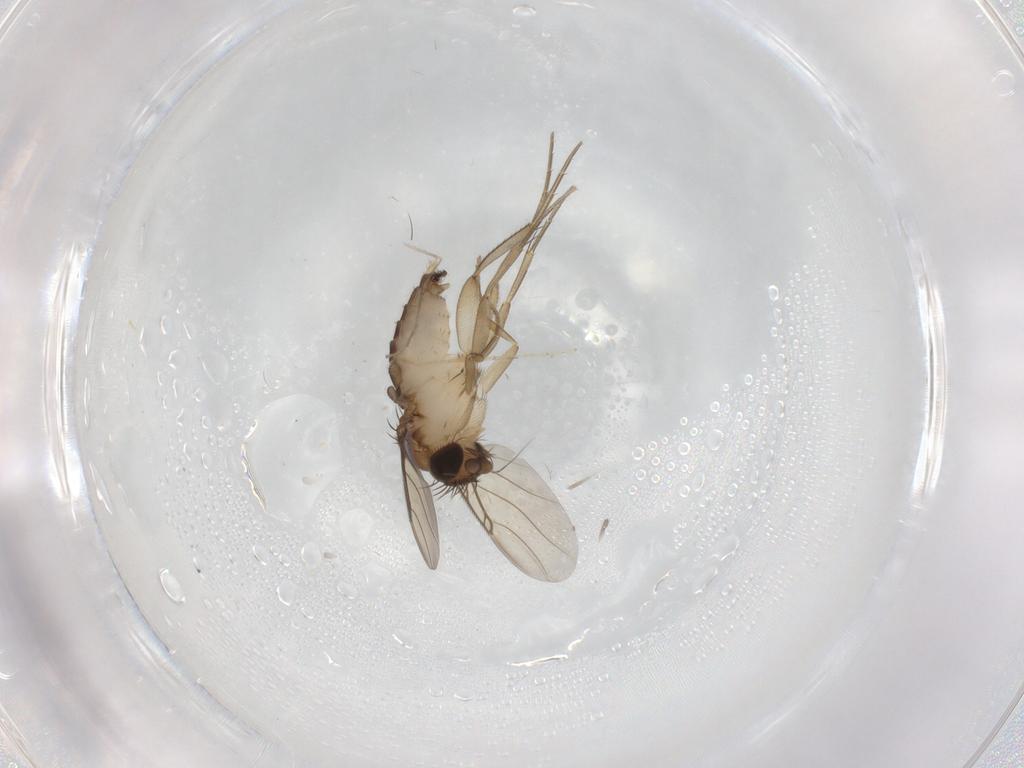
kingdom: Animalia
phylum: Arthropoda
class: Insecta
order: Diptera
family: Phoridae
